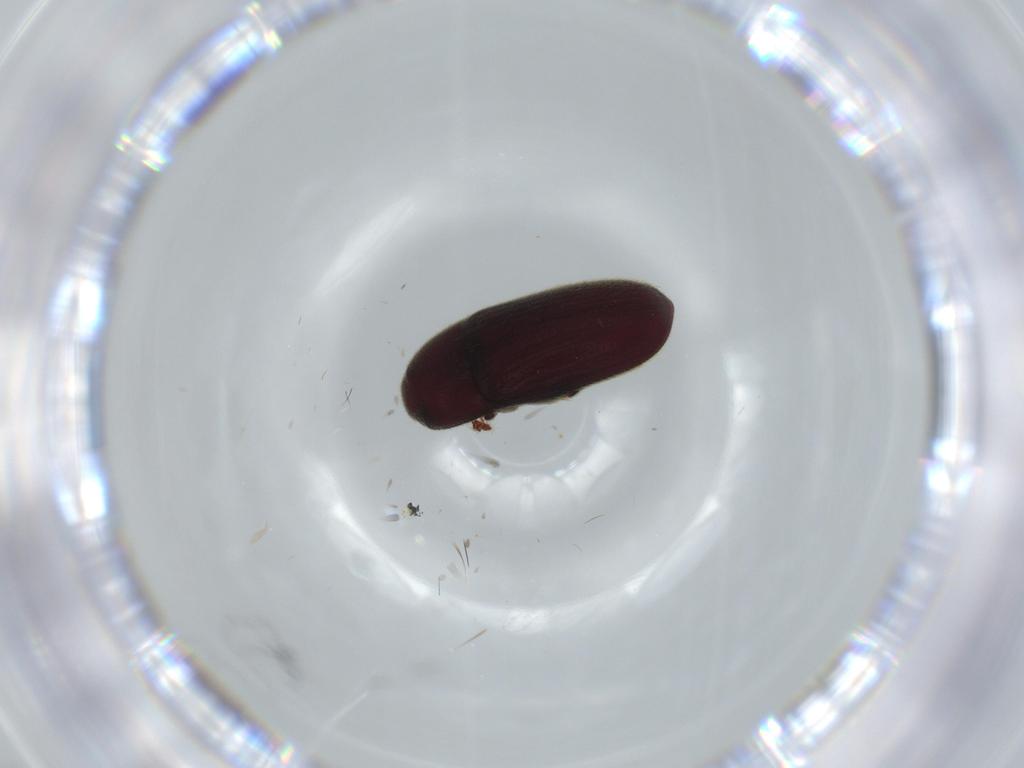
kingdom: Animalia
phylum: Arthropoda
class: Insecta
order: Coleoptera
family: Throscidae
